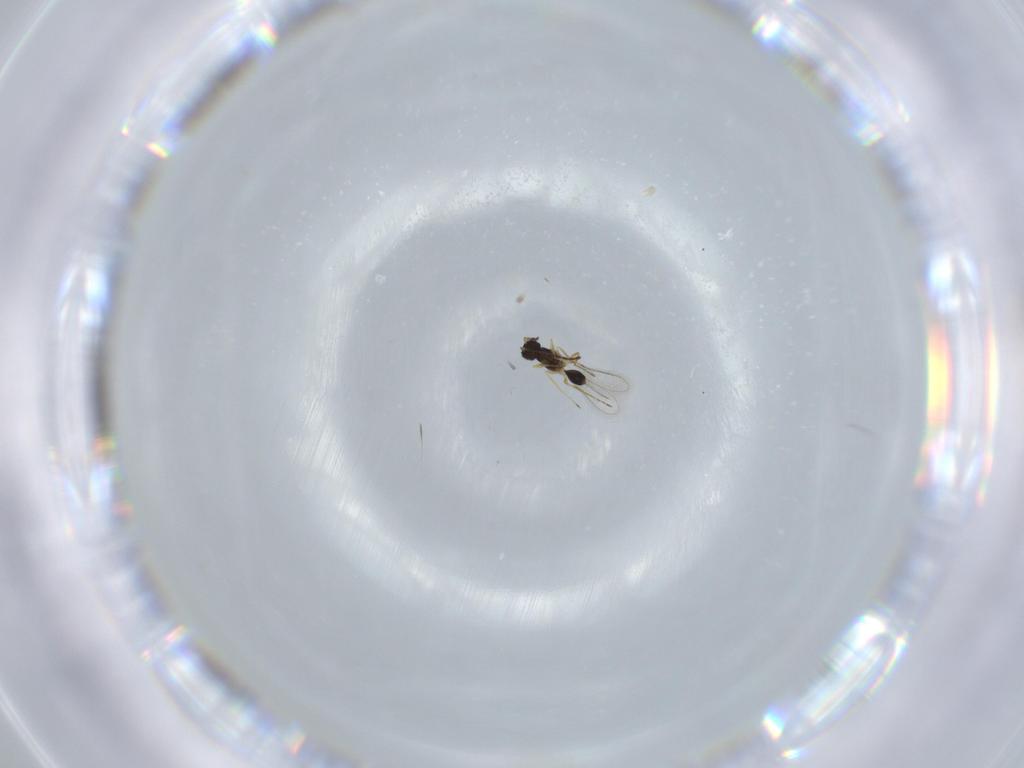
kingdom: Animalia
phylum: Arthropoda
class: Insecta
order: Hymenoptera
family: Mymaridae
